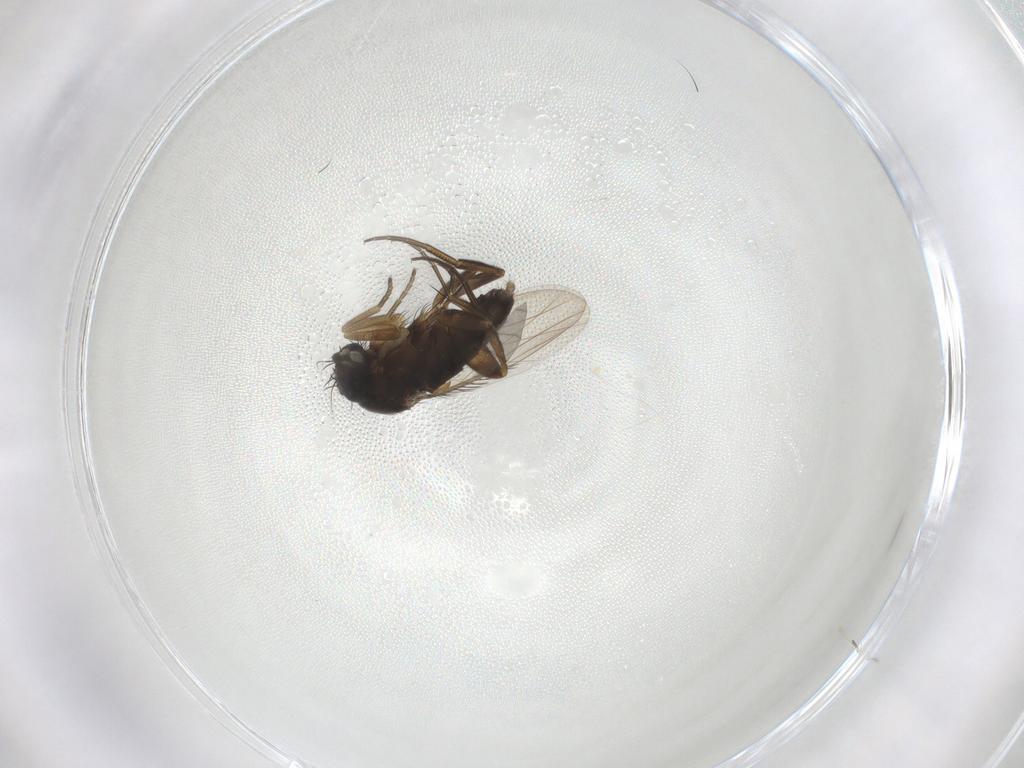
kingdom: Animalia
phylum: Arthropoda
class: Insecta
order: Diptera
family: Phoridae
